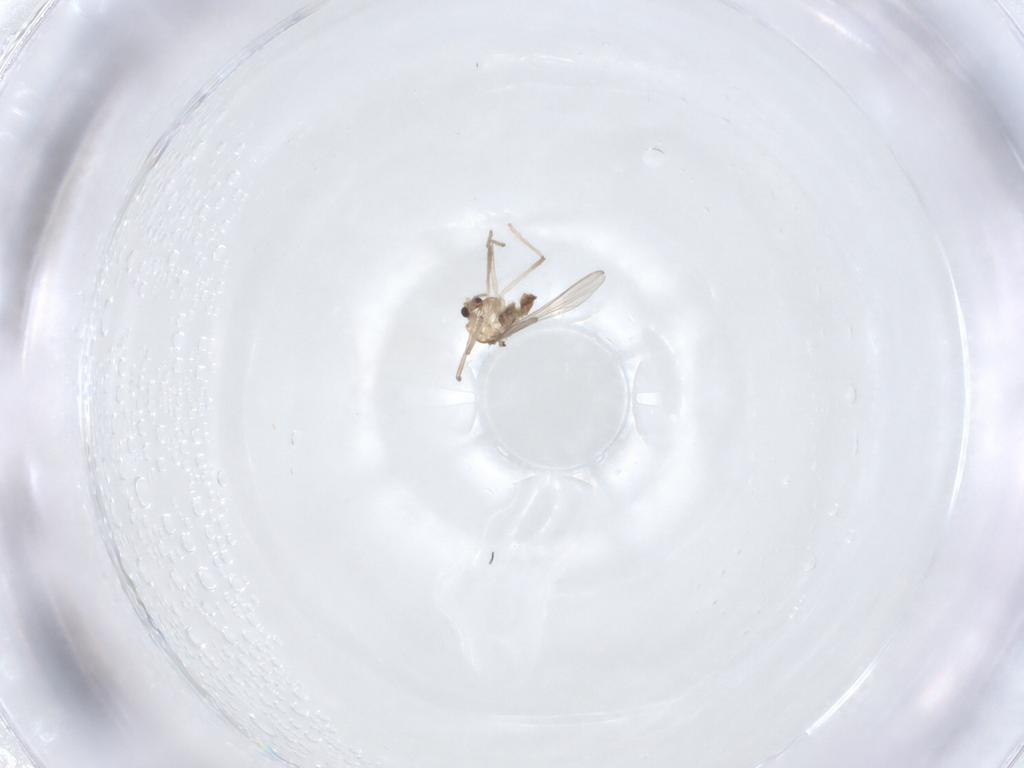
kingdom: Animalia
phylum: Arthropoda
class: Insecta
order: Diptera
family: Chironomidae
